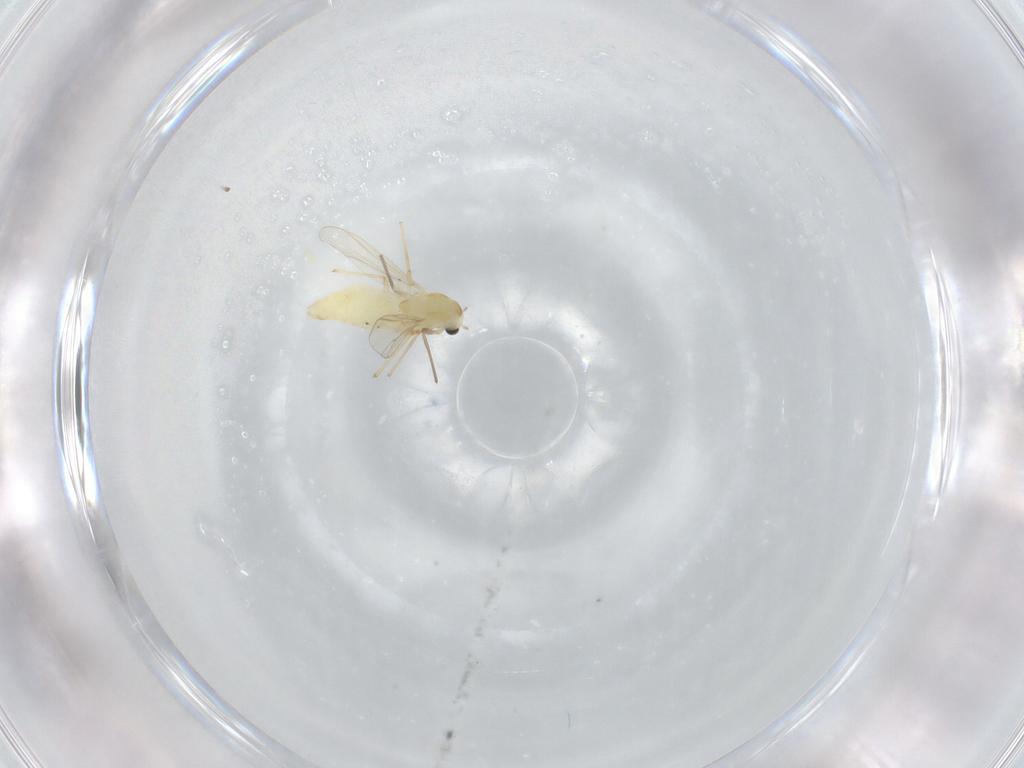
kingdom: Animalia
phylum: Arthropoda
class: Insecta
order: Diptera
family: Chironomidae
